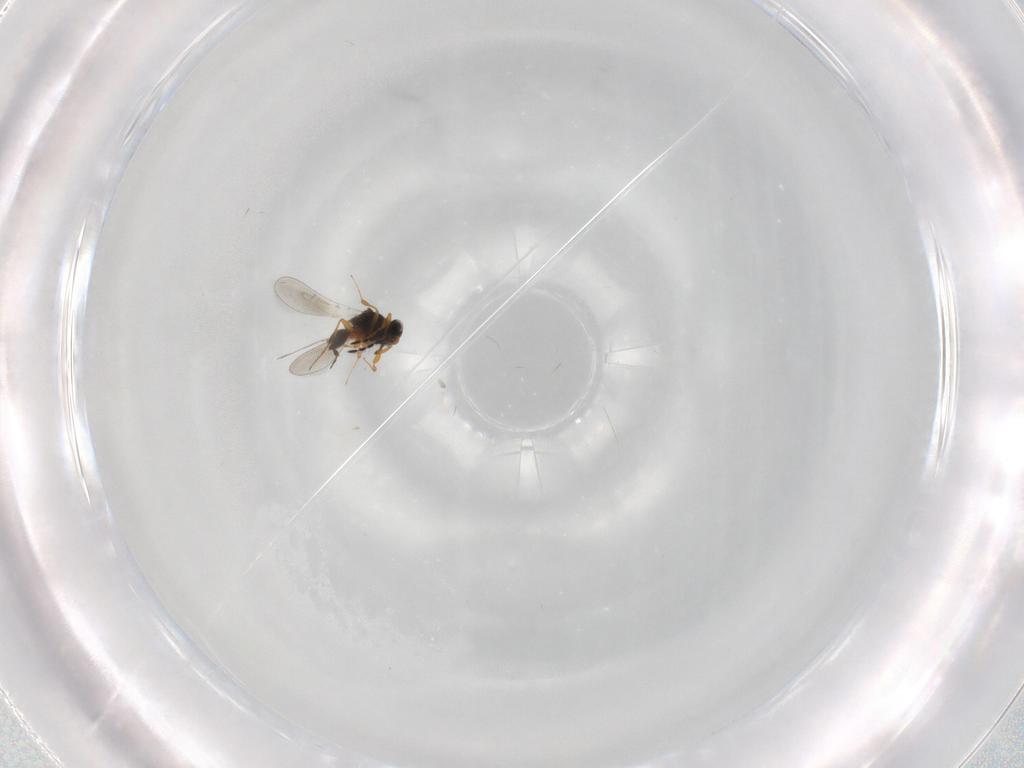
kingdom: Animalia
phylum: Arthropoda
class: Insecta
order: Hymenoptera
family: Platygastridae
